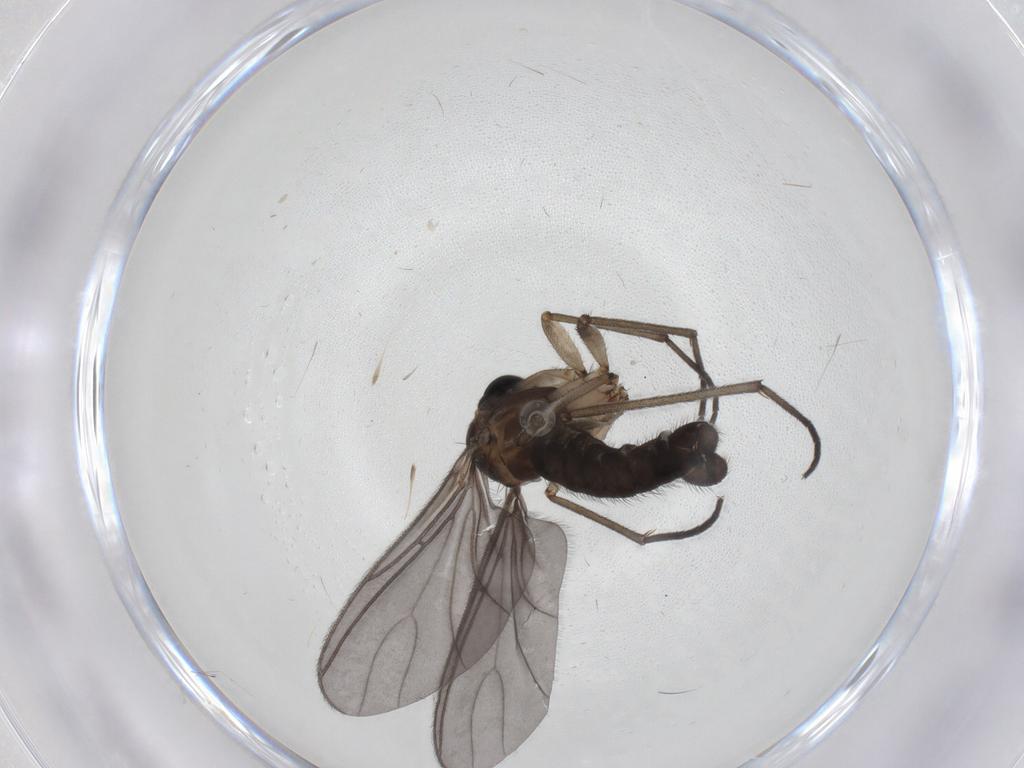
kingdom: Animalia
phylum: Arthropoda
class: Insecta
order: Diptera
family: Sciaridae
